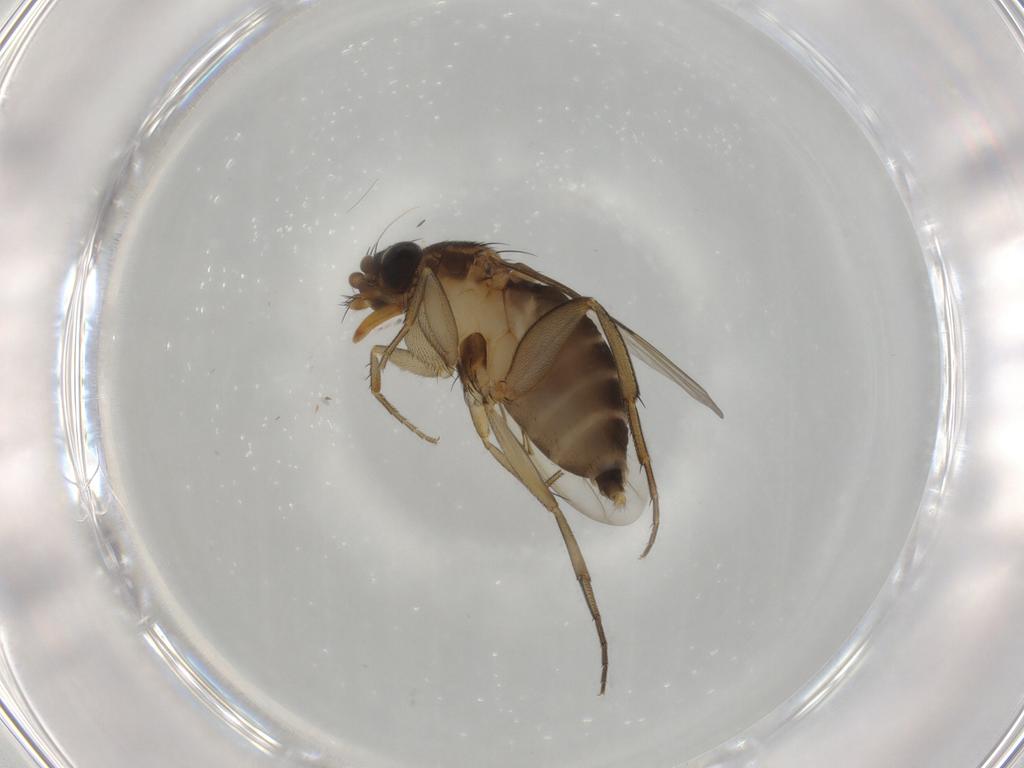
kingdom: Animalia
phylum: Arthropoda
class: Insecta
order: Diptera
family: Phoridae
